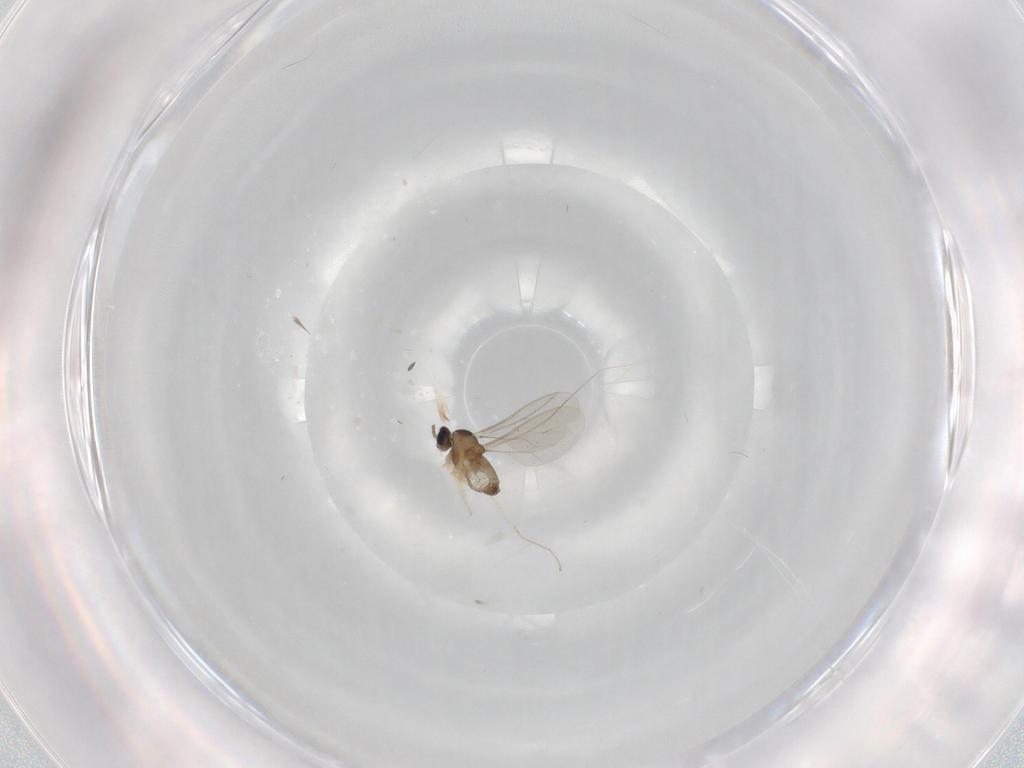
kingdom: Animalia
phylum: Arthropoda
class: Insecta
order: Diptera
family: Cecidomyiidae
